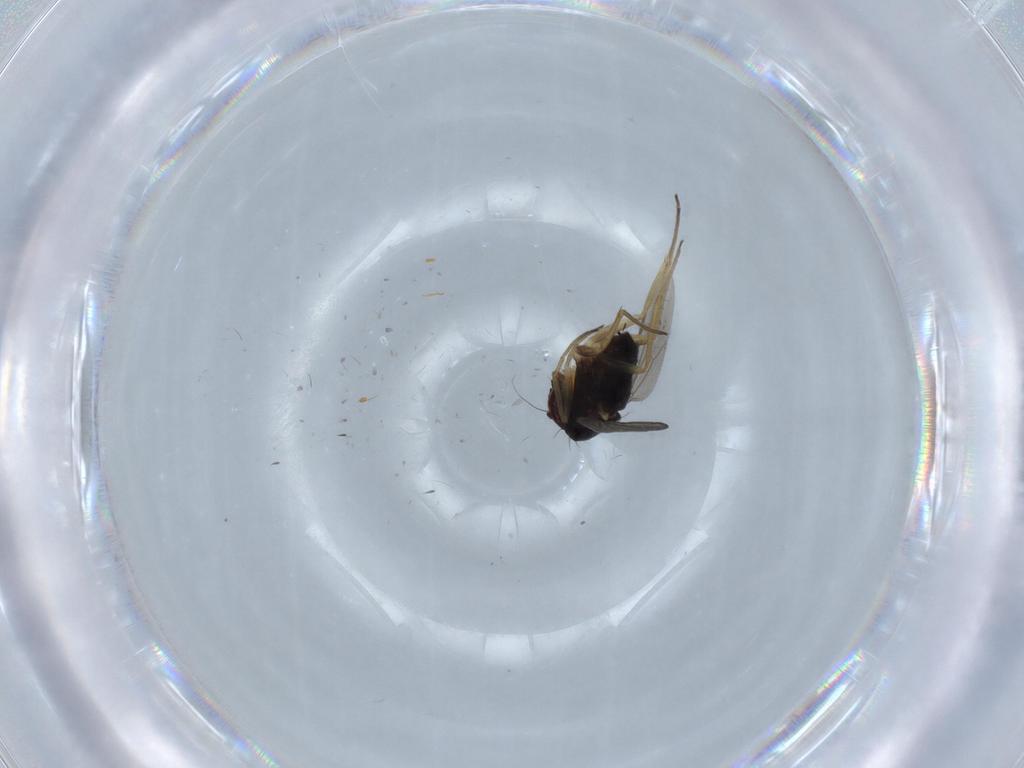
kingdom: Animalia
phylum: Arthropoda
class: Insecta
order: Diptera
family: Dolichopodidae
